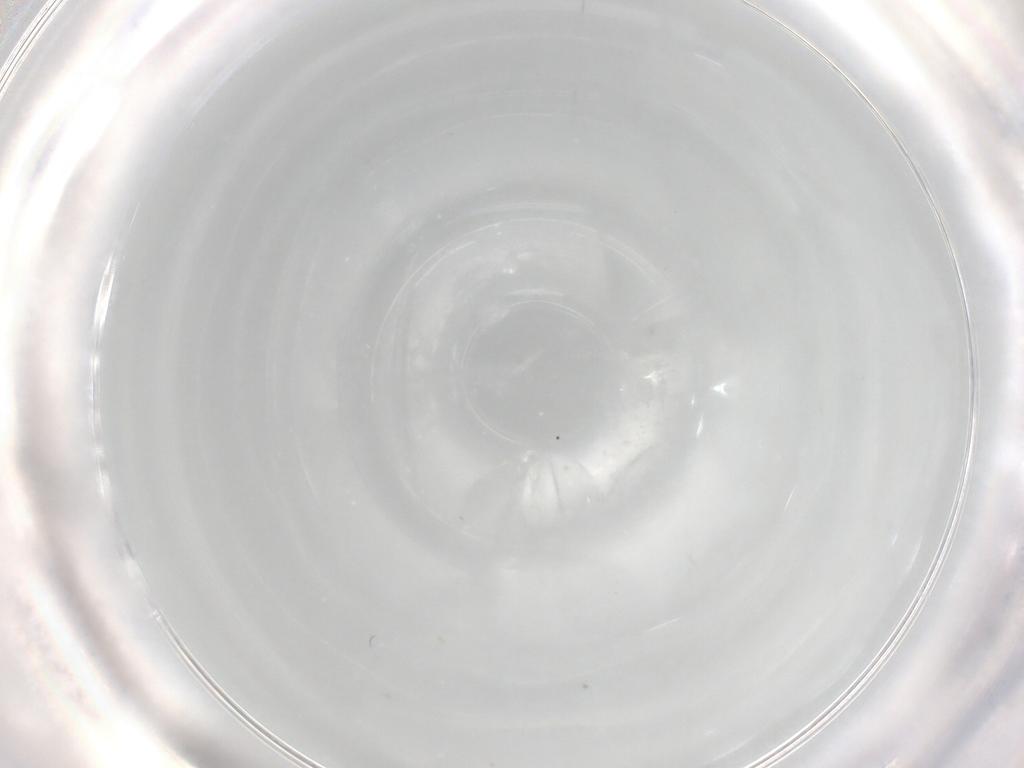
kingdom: Animalia
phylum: Arthropoda
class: Insecta
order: Diptera
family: Ceratopogonidae
